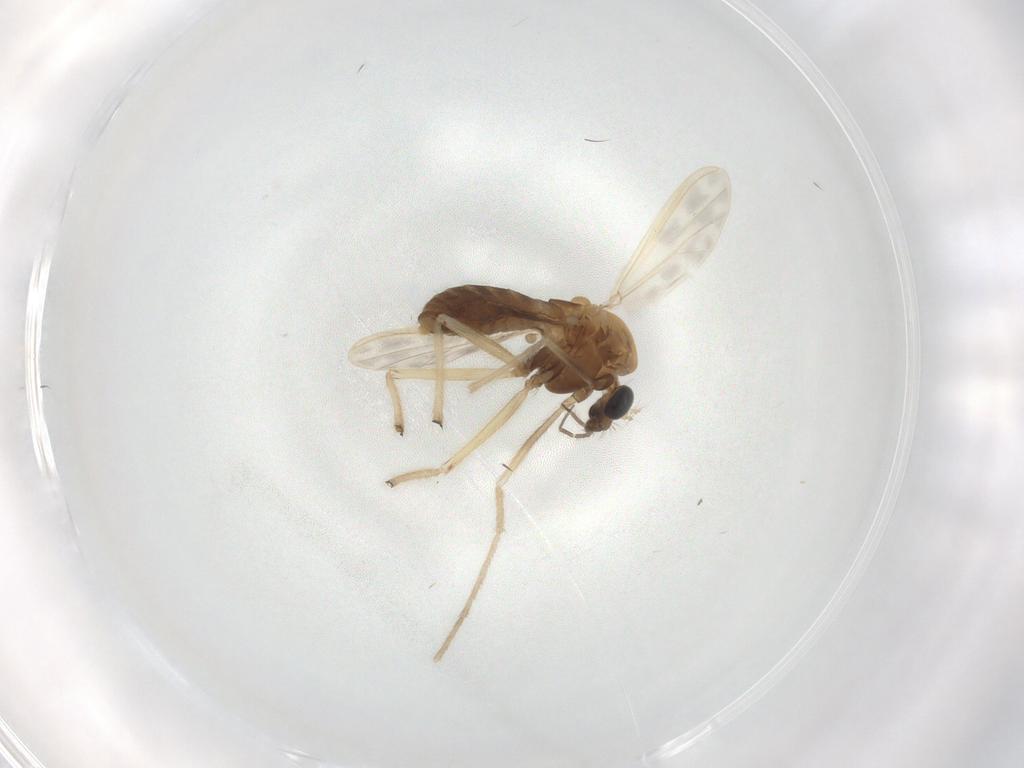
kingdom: Animalia
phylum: Arthropoda
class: Insecta
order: Diptera
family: Chironomidae
